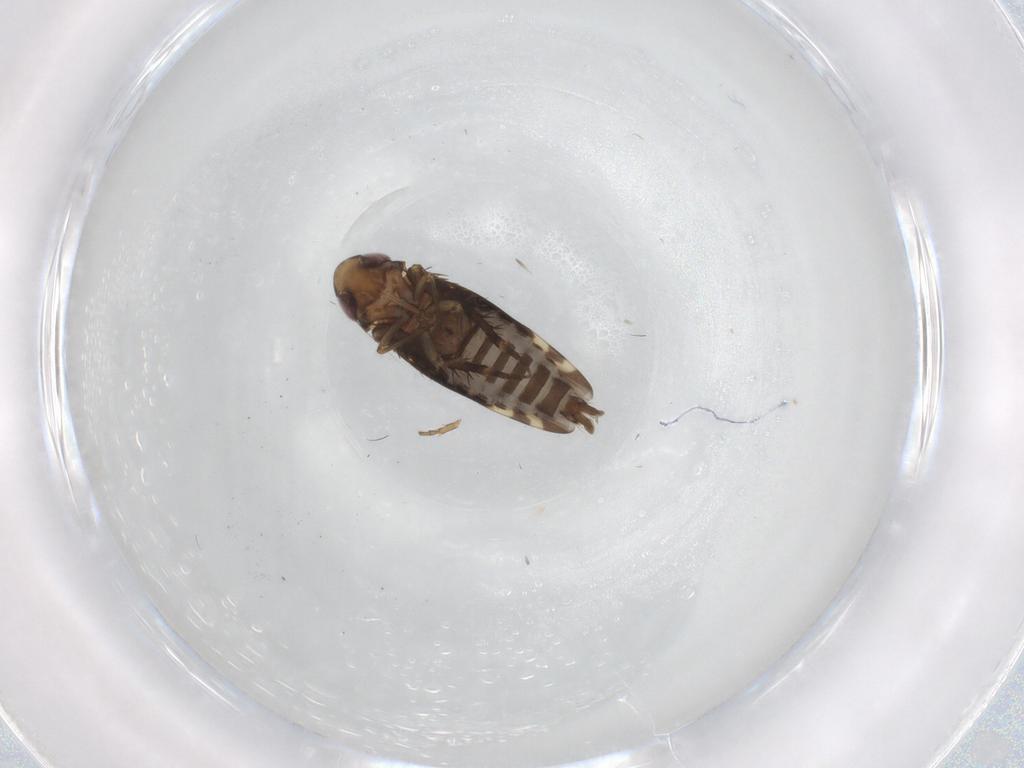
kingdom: Animalia
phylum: Arthropoda
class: Insecta
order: Hemiptera
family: Cicadellidae
